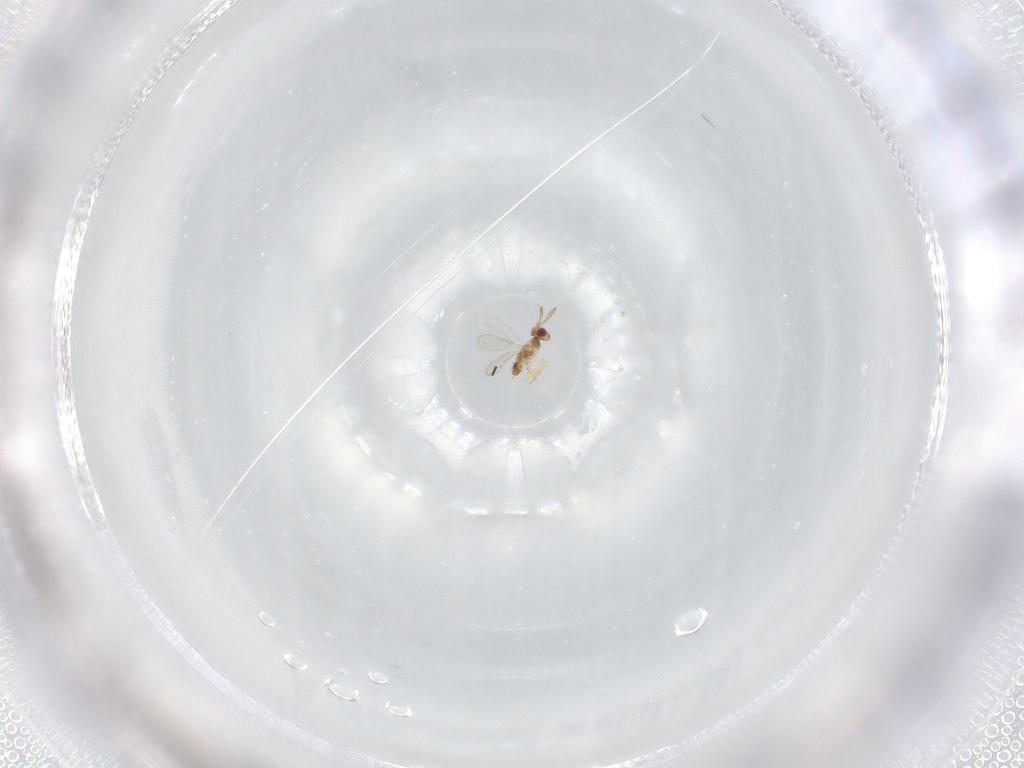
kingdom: Animalia
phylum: Arthropoda
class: Insecta
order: Hymenoptera
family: Aphelinidae
